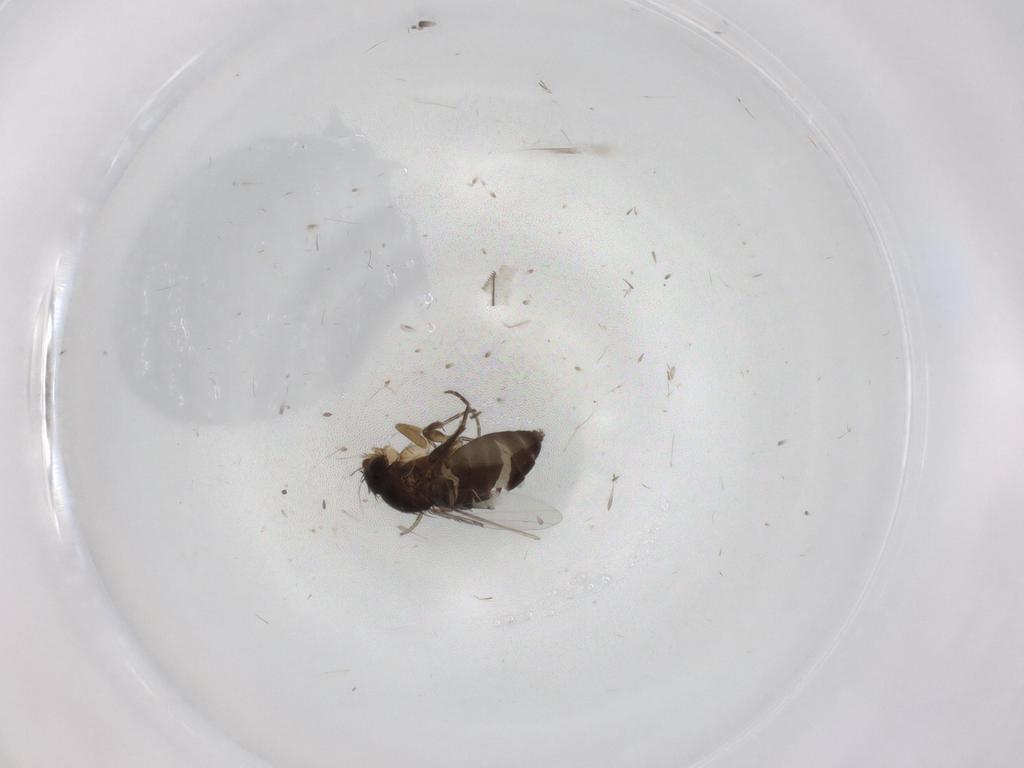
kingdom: Animalia
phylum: Arthropoda
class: Insecta
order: Diptera
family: Phoridae
